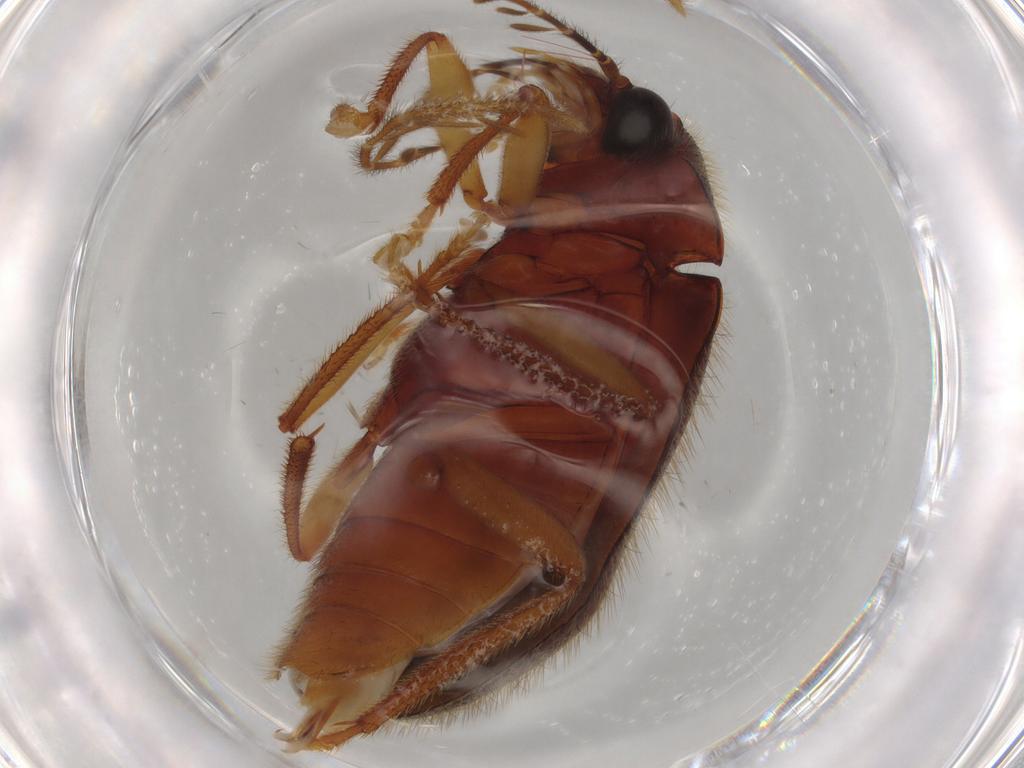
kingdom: Animalia
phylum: Arthropoda
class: Insecta
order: Coleoptera
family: Ptilodactylidae
